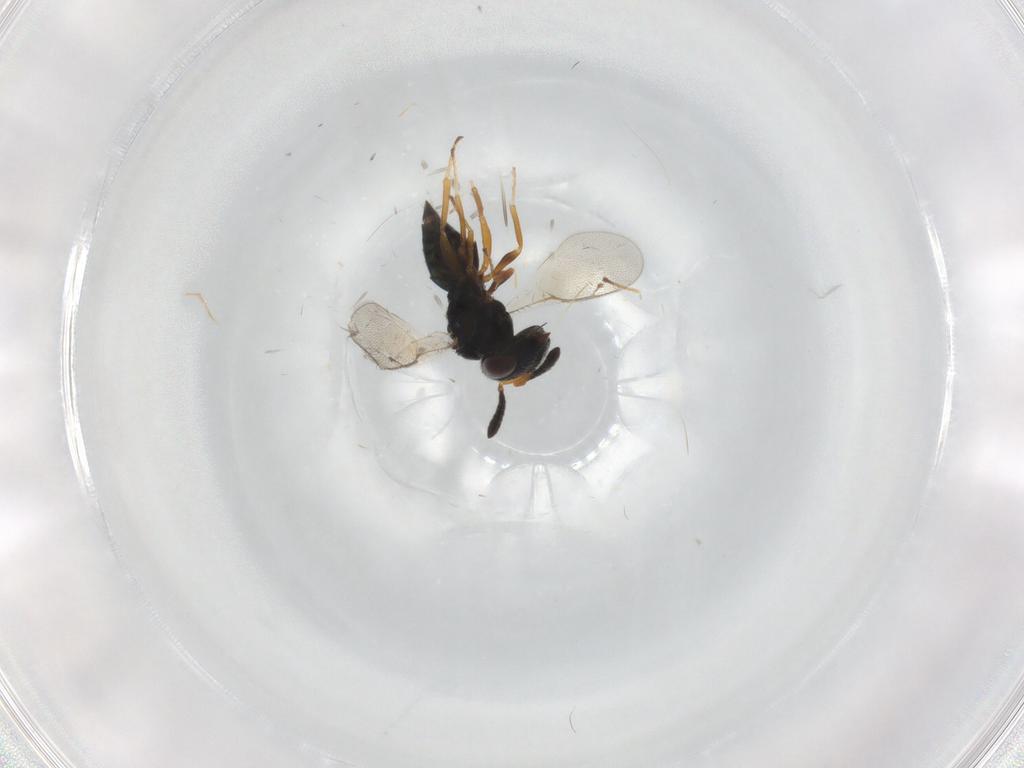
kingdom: Animalia
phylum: Arthropoda
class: Insecta
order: Hymenoptera
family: Pteromalidae
